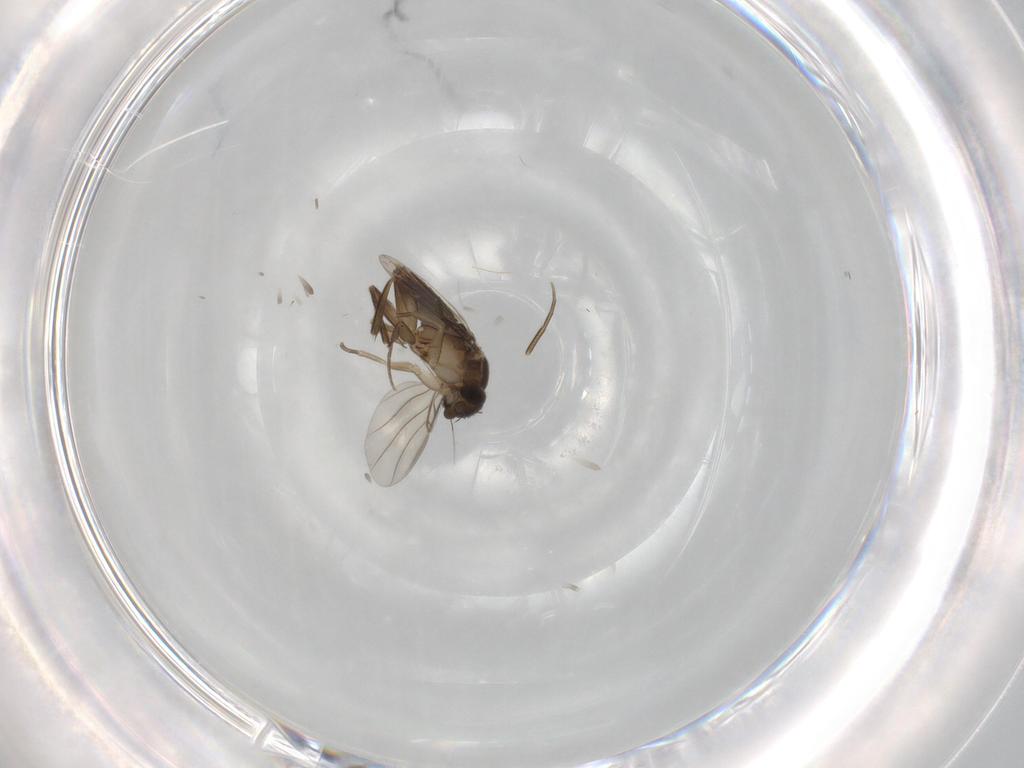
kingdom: Animalia
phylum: Arthropoda
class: Insecta
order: Diptera
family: Phoridae
